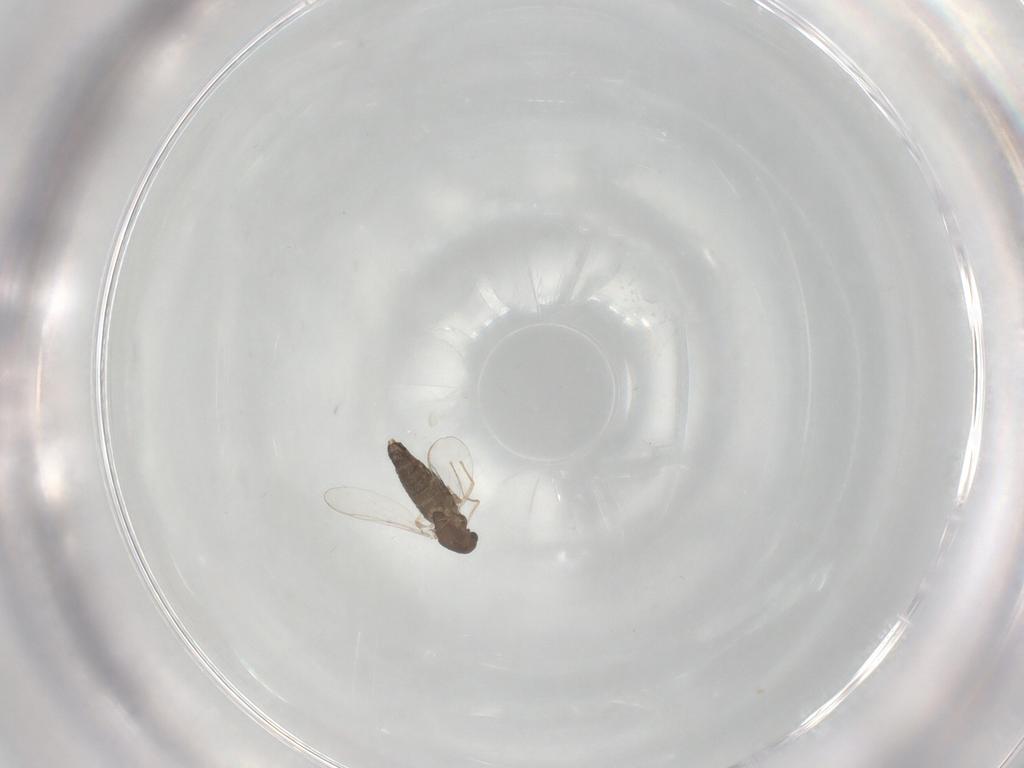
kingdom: Animalia
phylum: Arthropoda
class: Insecta
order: Diptera
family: Chironomidae
